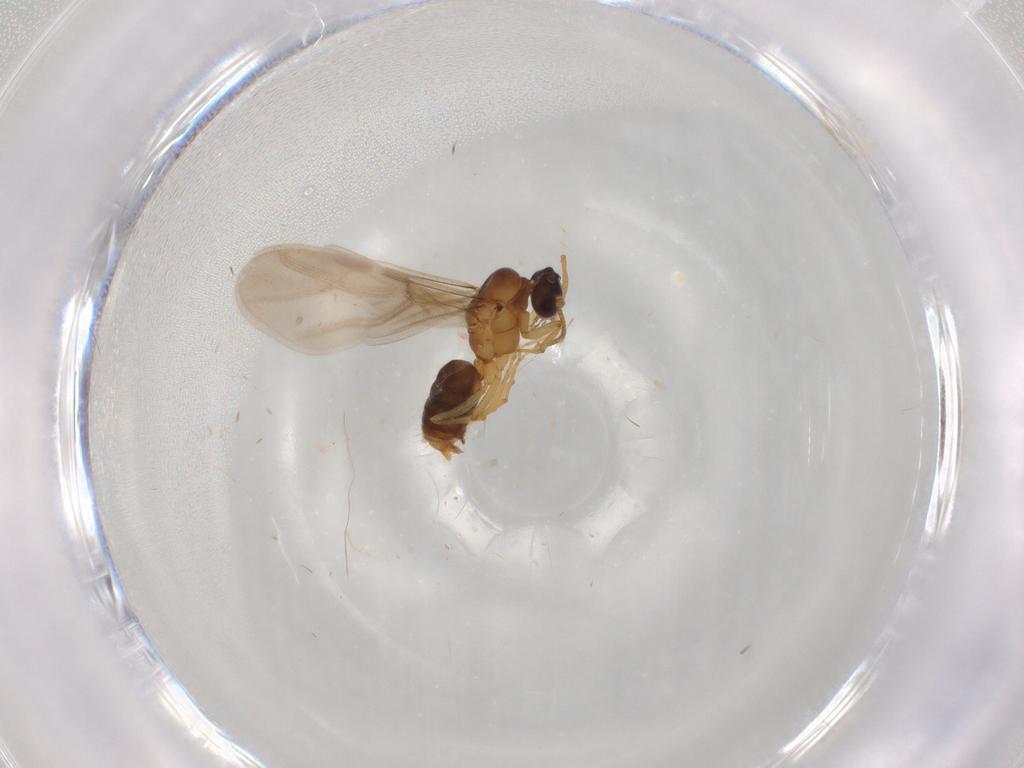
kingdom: Animalia
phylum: Arthropoda
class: Insecta
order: Hymenoptera
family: Formicidae
